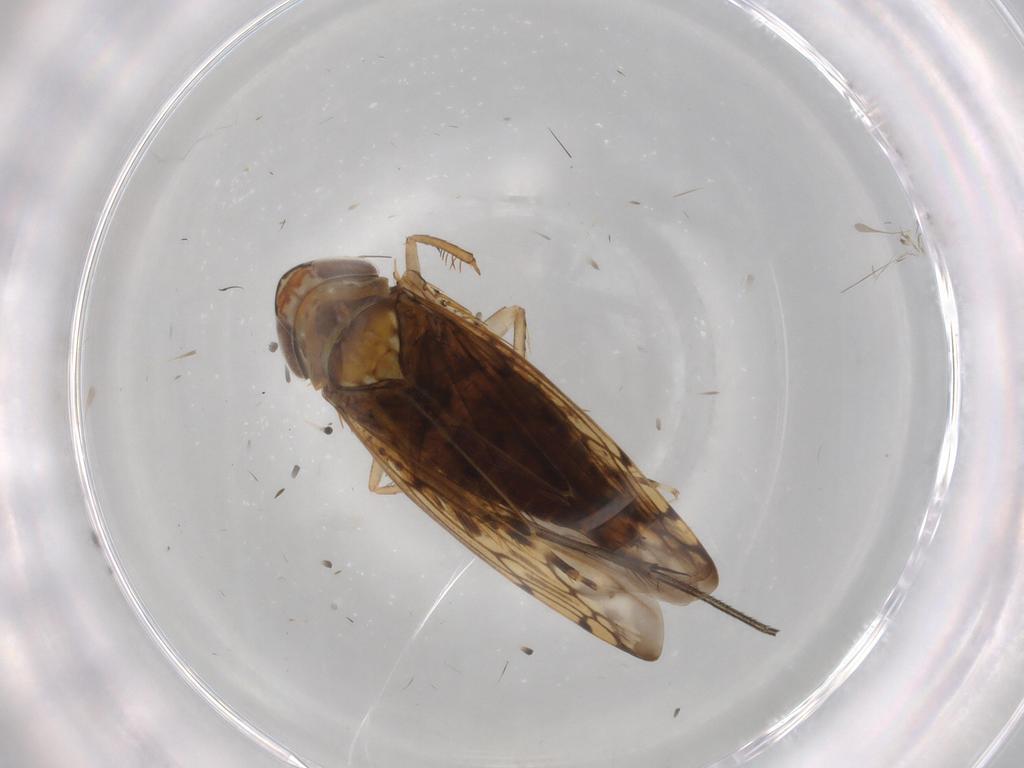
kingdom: Animalia
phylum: Arthropoda
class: Insecta
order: Hemiptera
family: Cicadellidae
